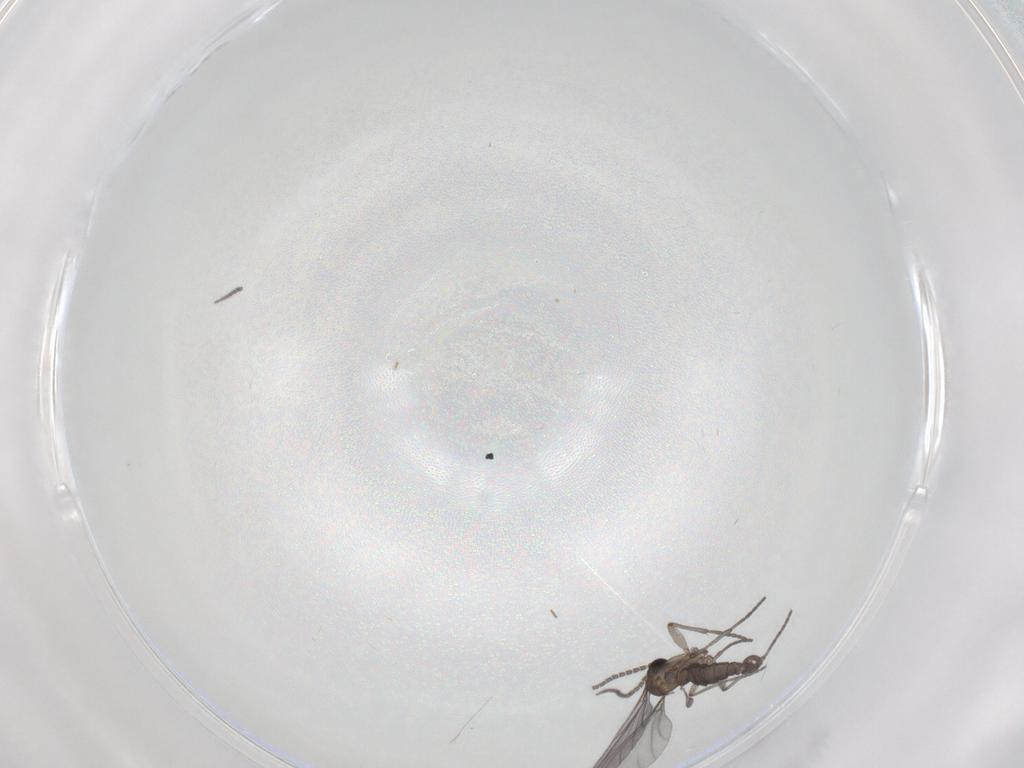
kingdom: Animalia
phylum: Arthropoda
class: Insecta
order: Diptera
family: Sciaridae
